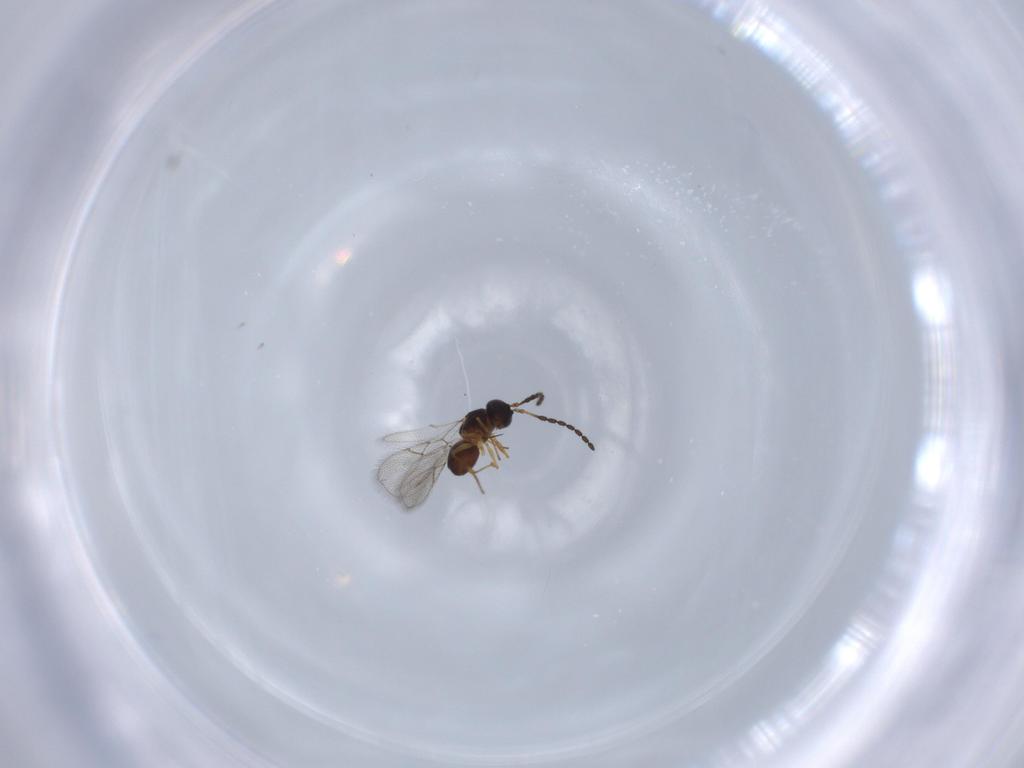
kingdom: Animalia
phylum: Arthropoda
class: Insecta
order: Hymenoptera
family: Figitidae
